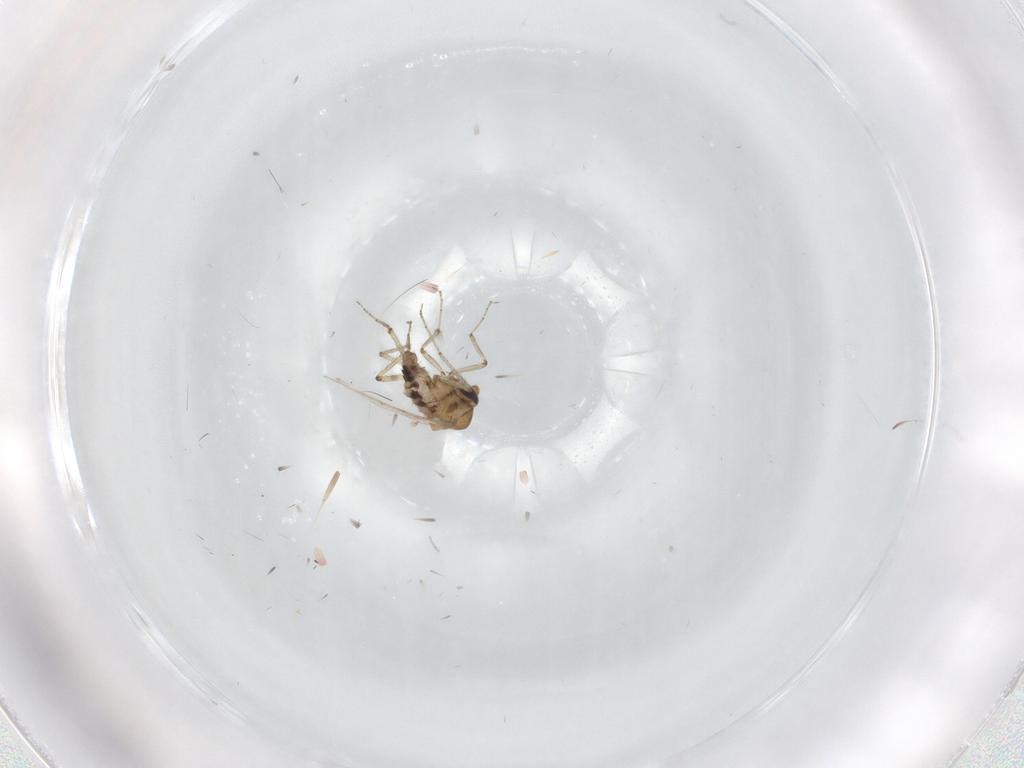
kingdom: Animalia
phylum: Arthropoda
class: Insecta
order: Diptera
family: Ceratopogonidae
